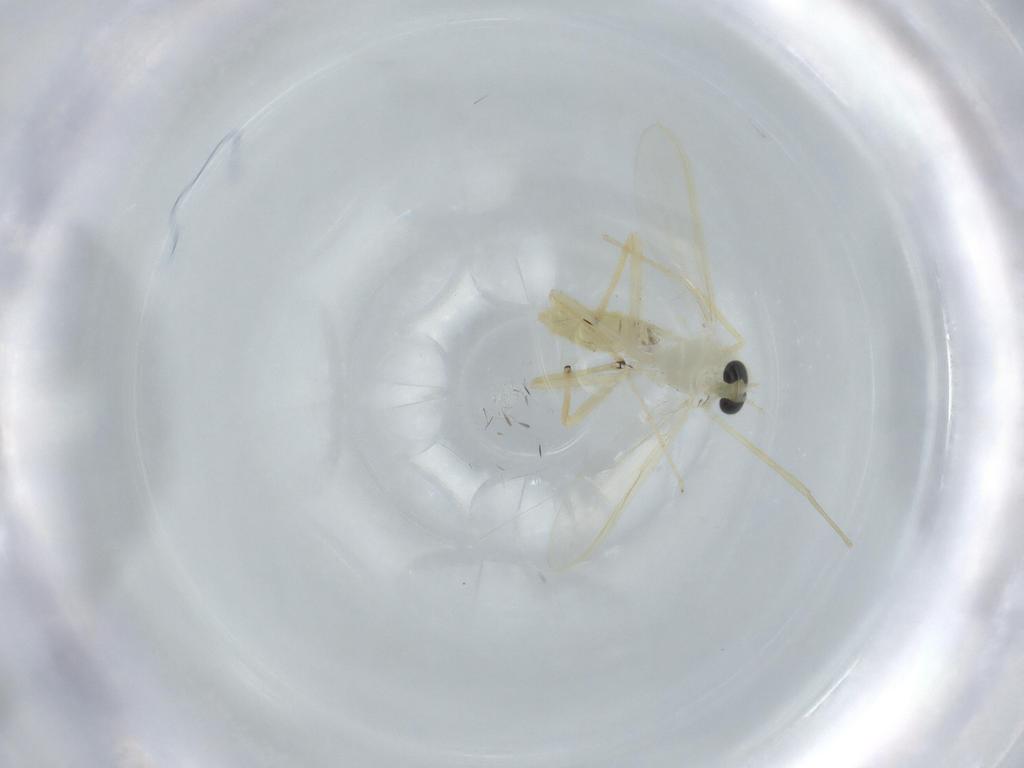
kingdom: Animalia
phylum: Arthropoda
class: Insecta
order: Diptera
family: Chironomidae
